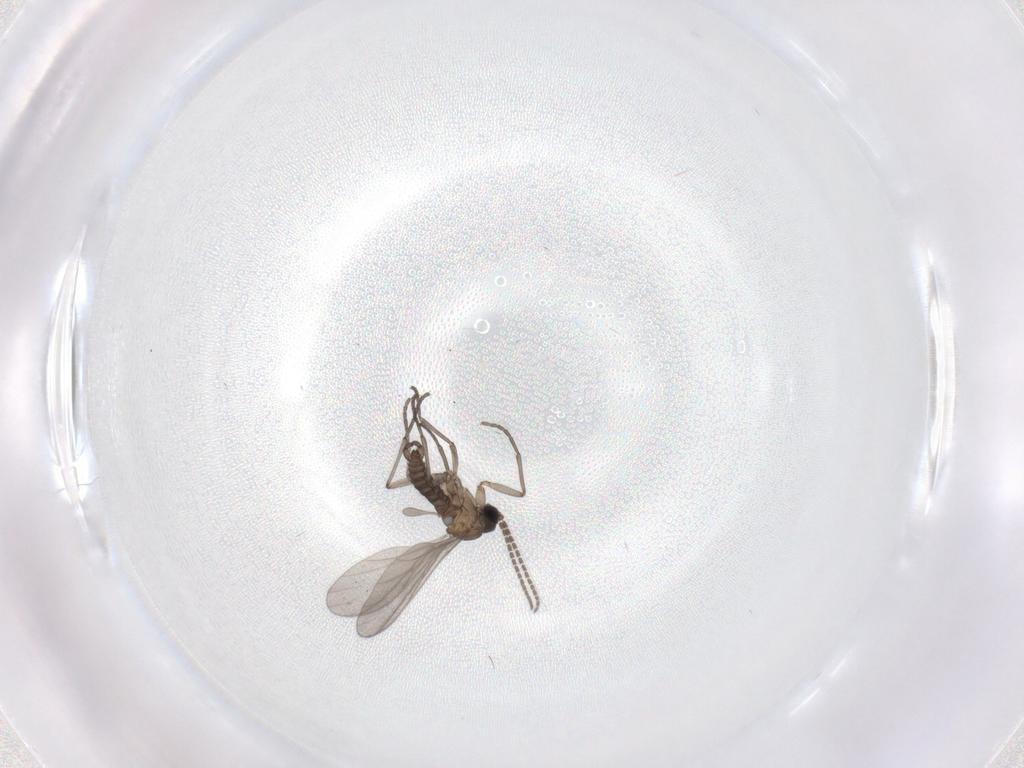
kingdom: Animalia
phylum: Arthropoda
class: Insecta
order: Diptera
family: Sciaridae
